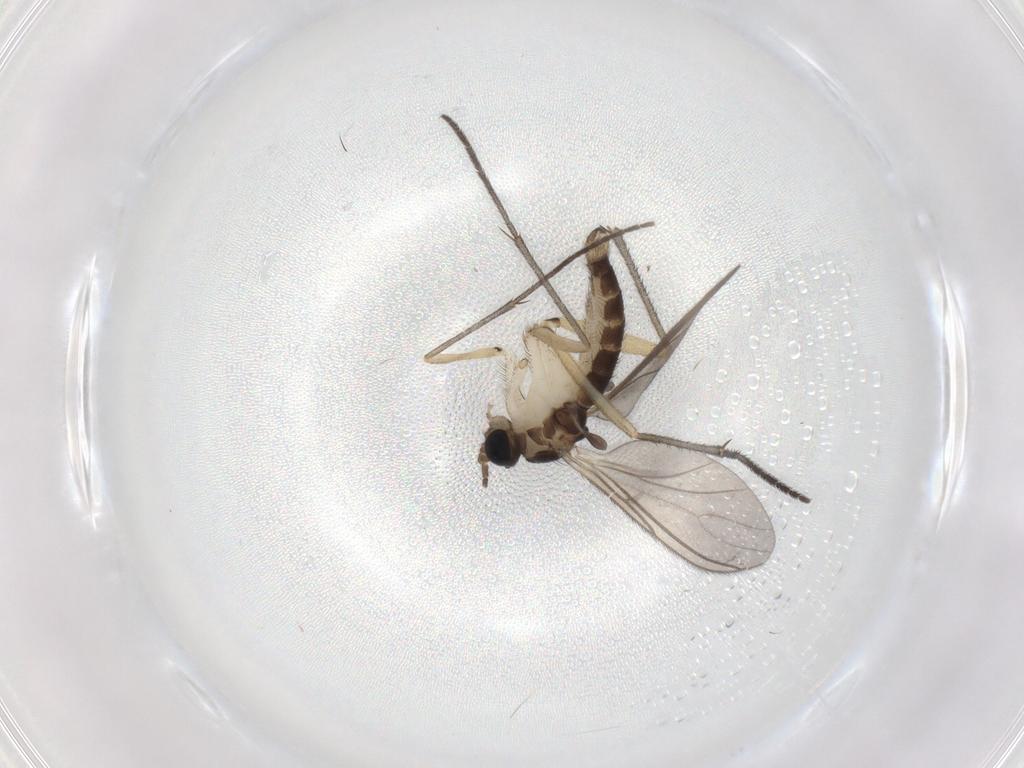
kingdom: Animalia
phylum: Arthropoda
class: Insecta
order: Diptera
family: Sciaridae
